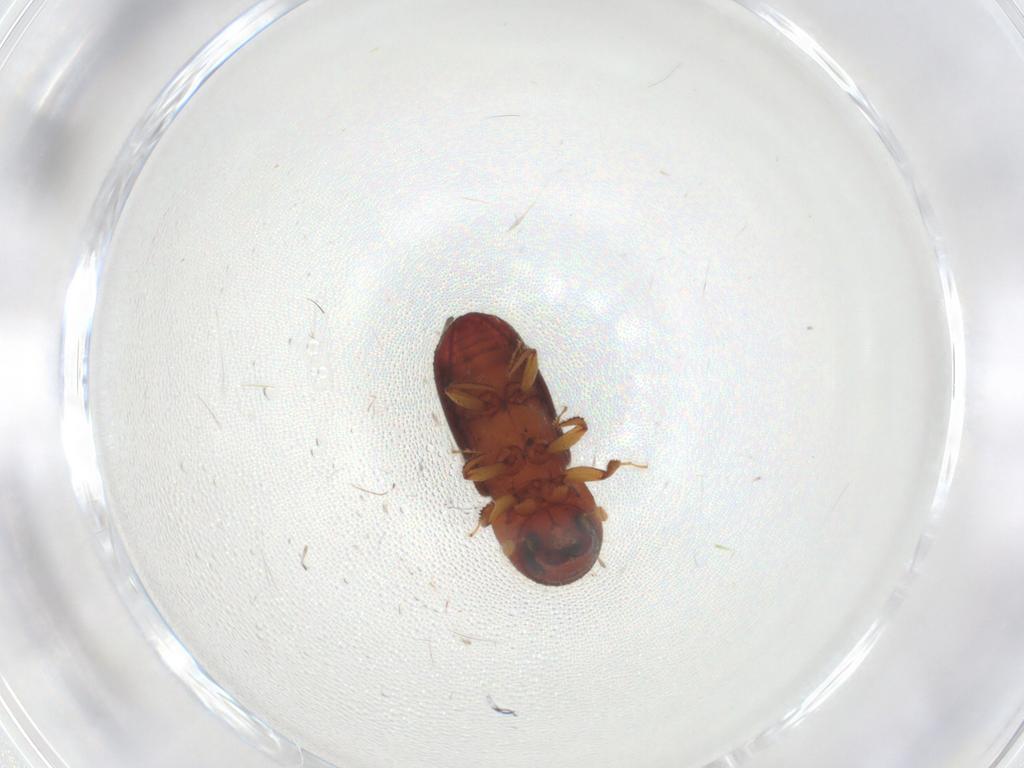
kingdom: Animalia
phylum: Arthropoda
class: Insecta
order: Coleoptera
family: Curculionidae
